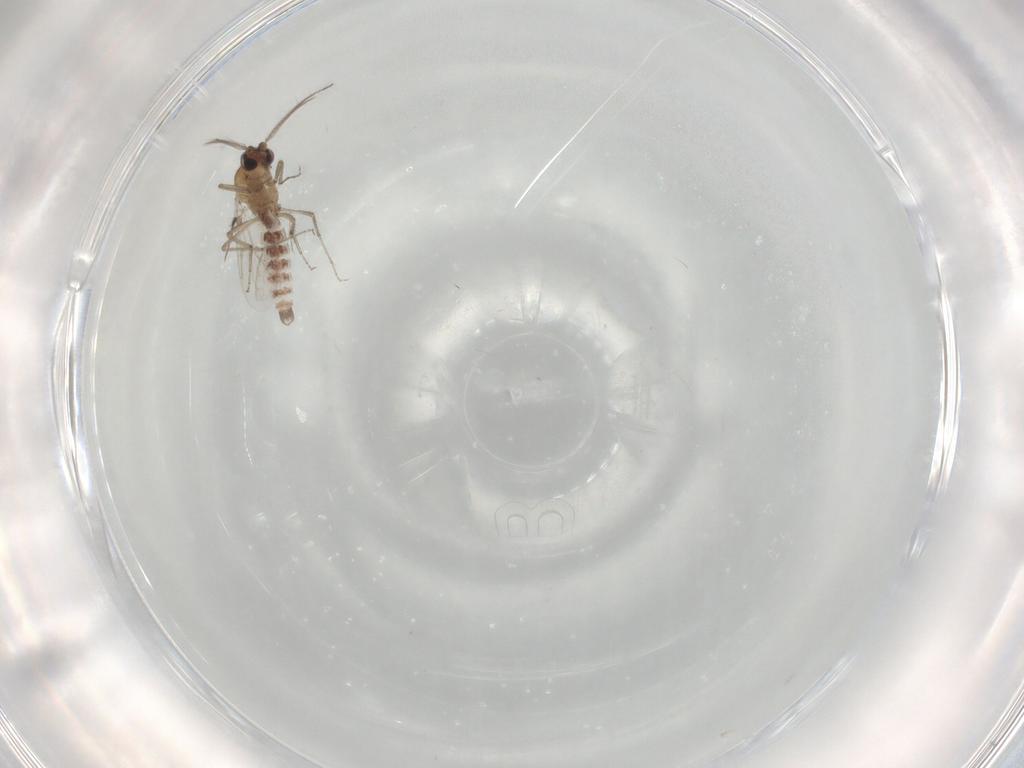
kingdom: Animalia
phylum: Arthropoda
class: Insecta
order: Diptera
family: Chironomidae
